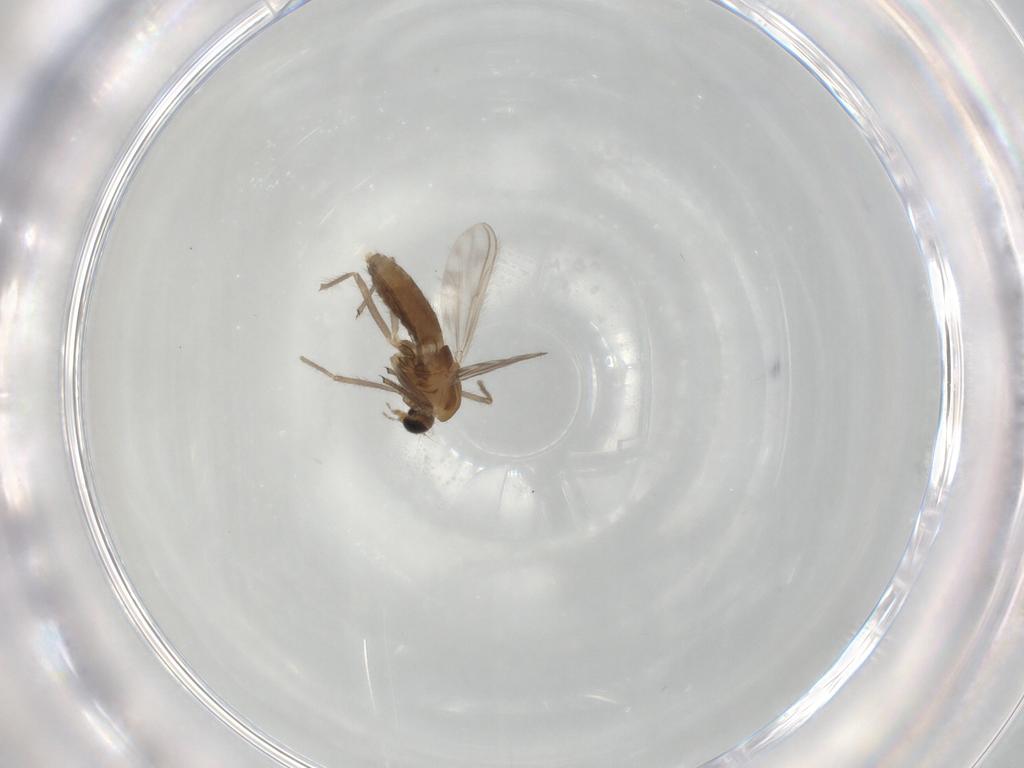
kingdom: Animalia
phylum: Arthropoda
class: Insecta
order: Diptera
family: Chironomidae
